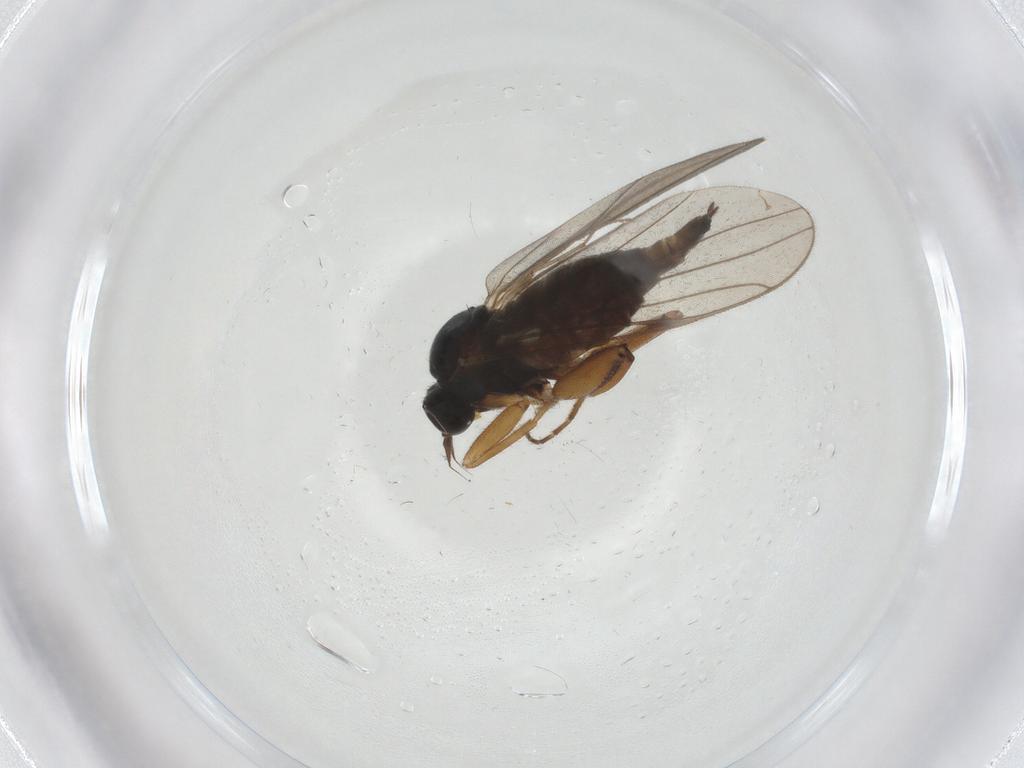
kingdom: Animalia
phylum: Arthropoda
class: Insecta
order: Diptera
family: Hybotidae
